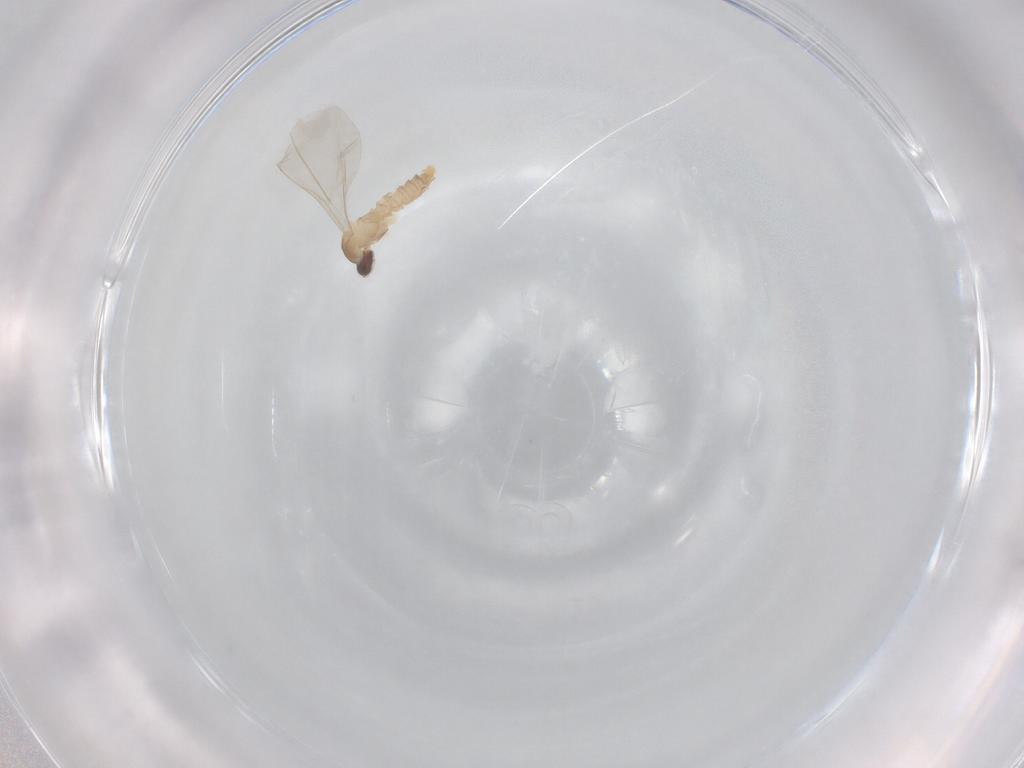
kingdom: Animalia
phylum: Arthropoda
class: Insecta
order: Diptera
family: Cecidomyiidae
